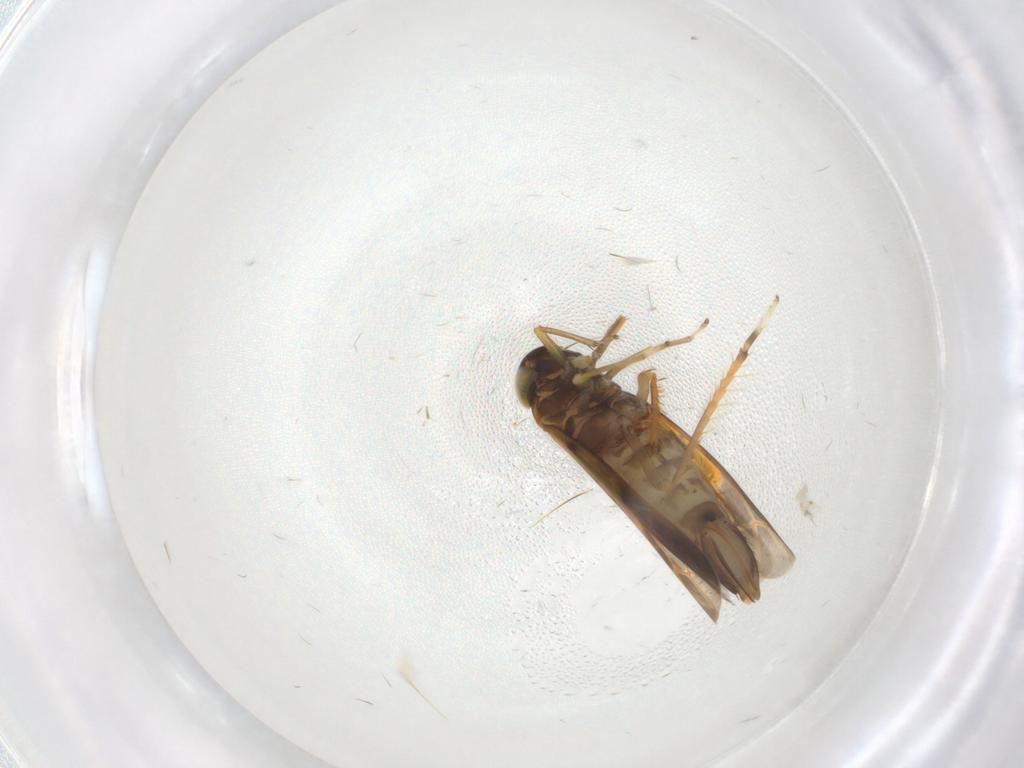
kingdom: Animalia
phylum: Arthropoda
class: Insecta
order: Hemiptera
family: Cicadellidae
